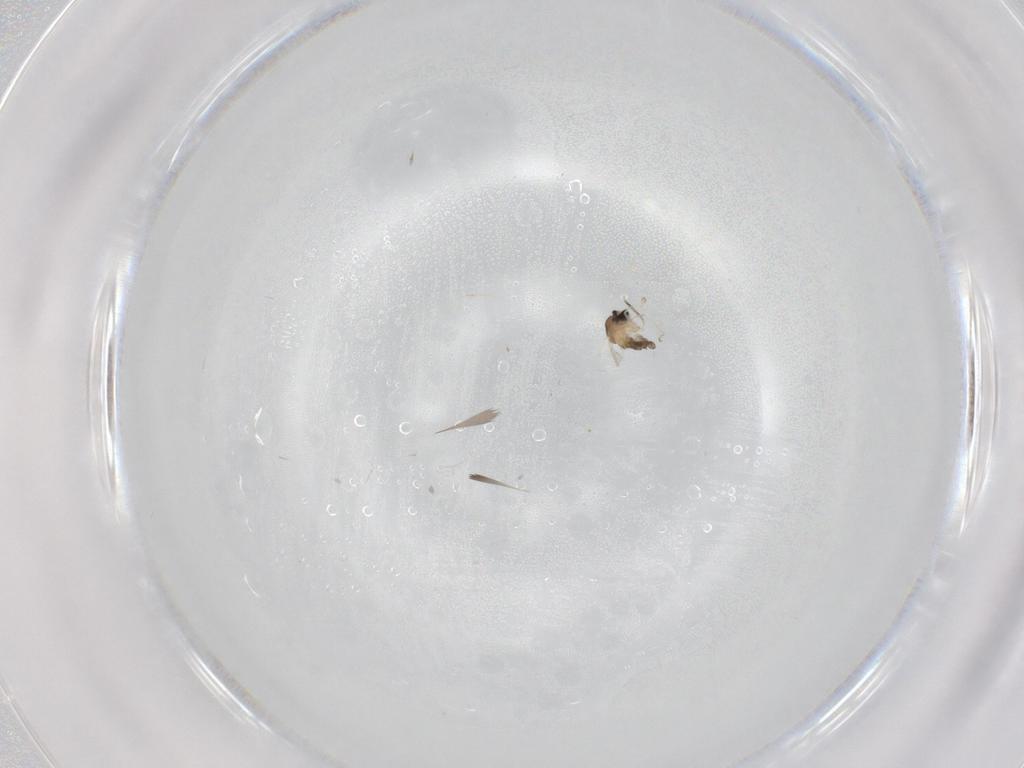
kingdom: Animalia
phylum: Arthropoda
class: Insecta
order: Diptera
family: Cecidomyiidae
